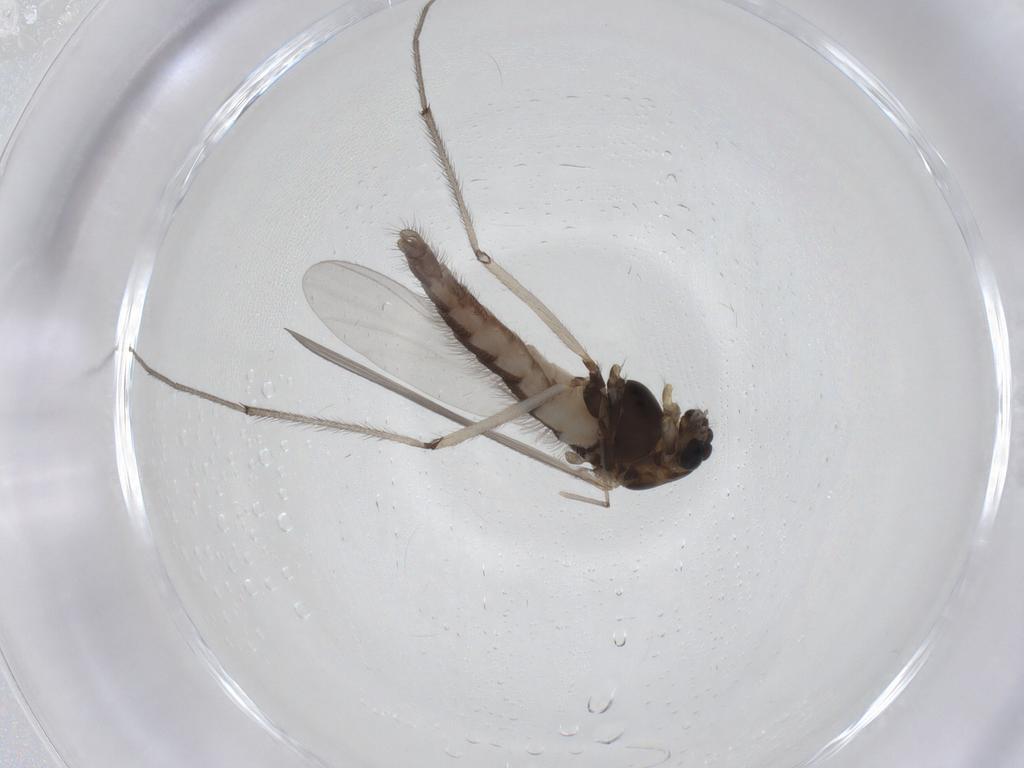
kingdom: Animalia
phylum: Arthropoda
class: Insecta
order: Diptera
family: Chironomidae
